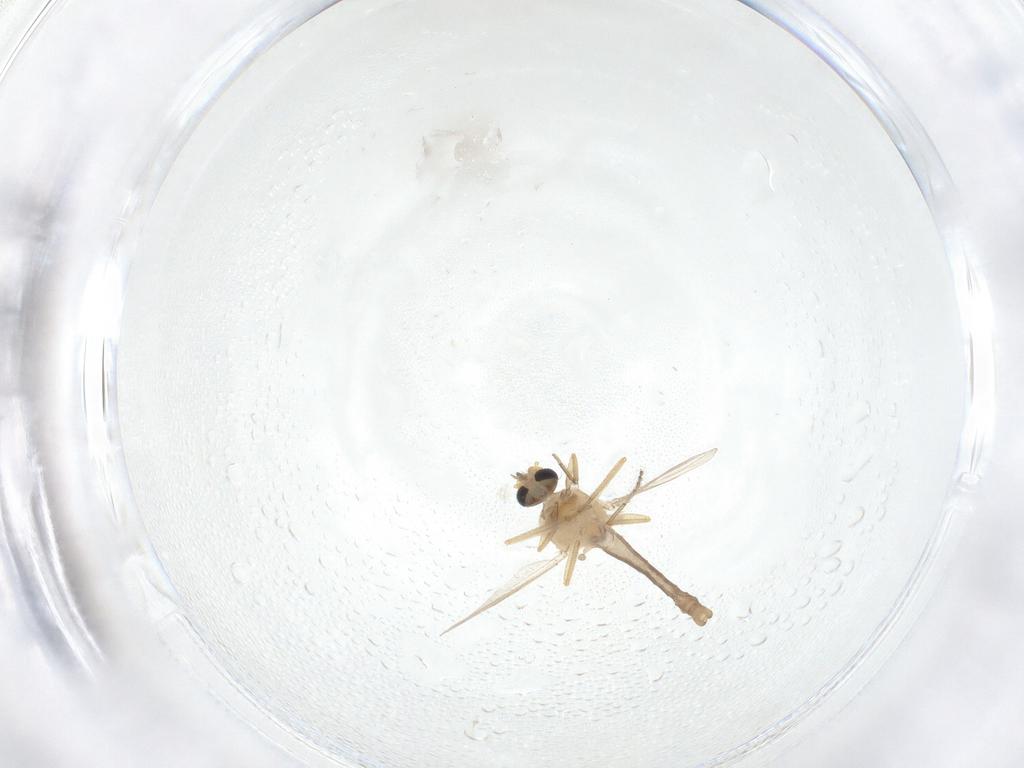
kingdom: Animalia
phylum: Arthropoda
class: Insecta
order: Diptera
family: Ceratopogonidae
